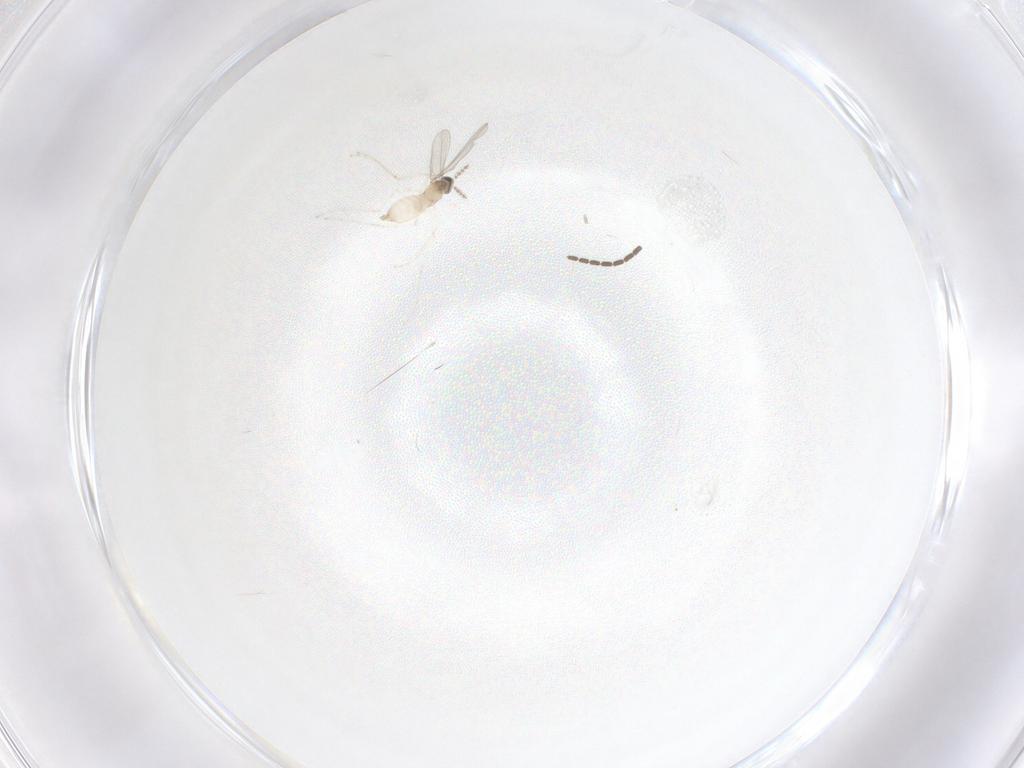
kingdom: Animalia
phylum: Arthropoda
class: Insecta
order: Diptera
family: Cecidomyiidae
